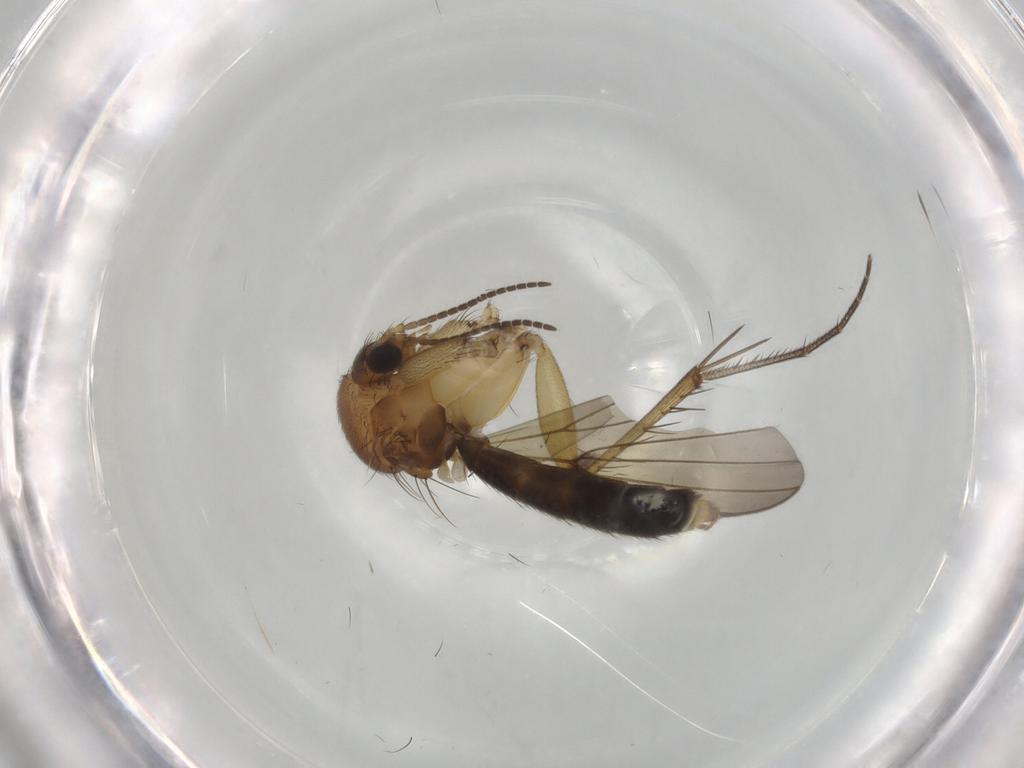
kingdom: Animalia
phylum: Arthropoda
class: Insecta
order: Diptera
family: Mycetophilidae
